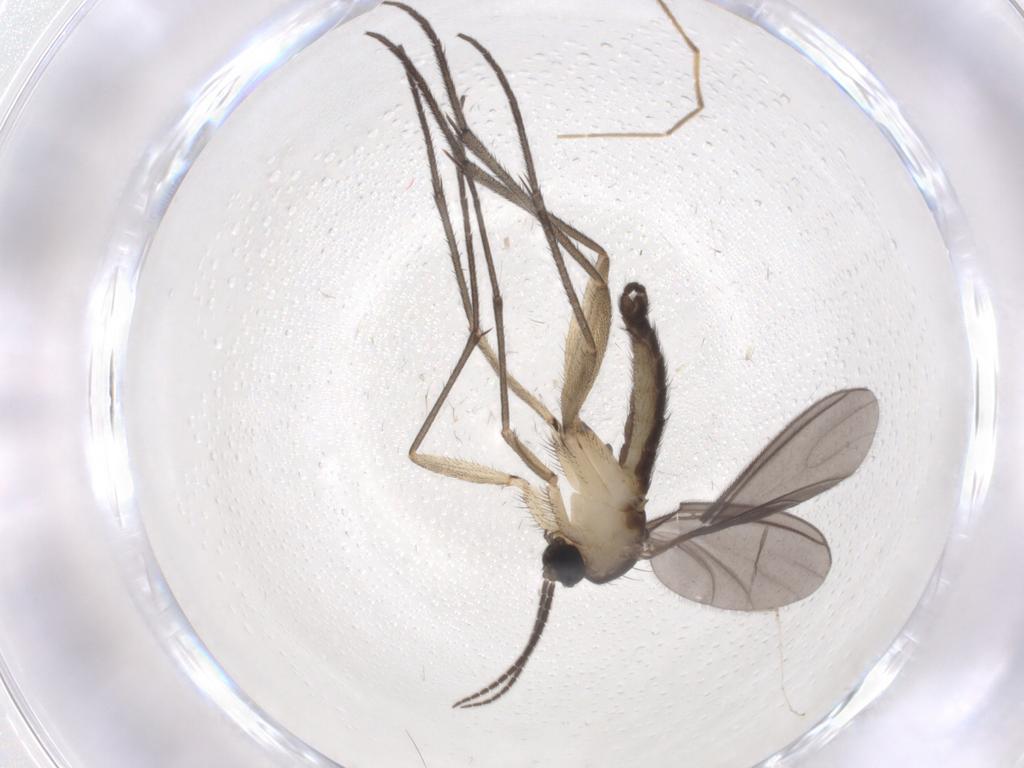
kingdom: Animalia
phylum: Arthropoda
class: Insecta
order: Diptera
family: Sciaridae
